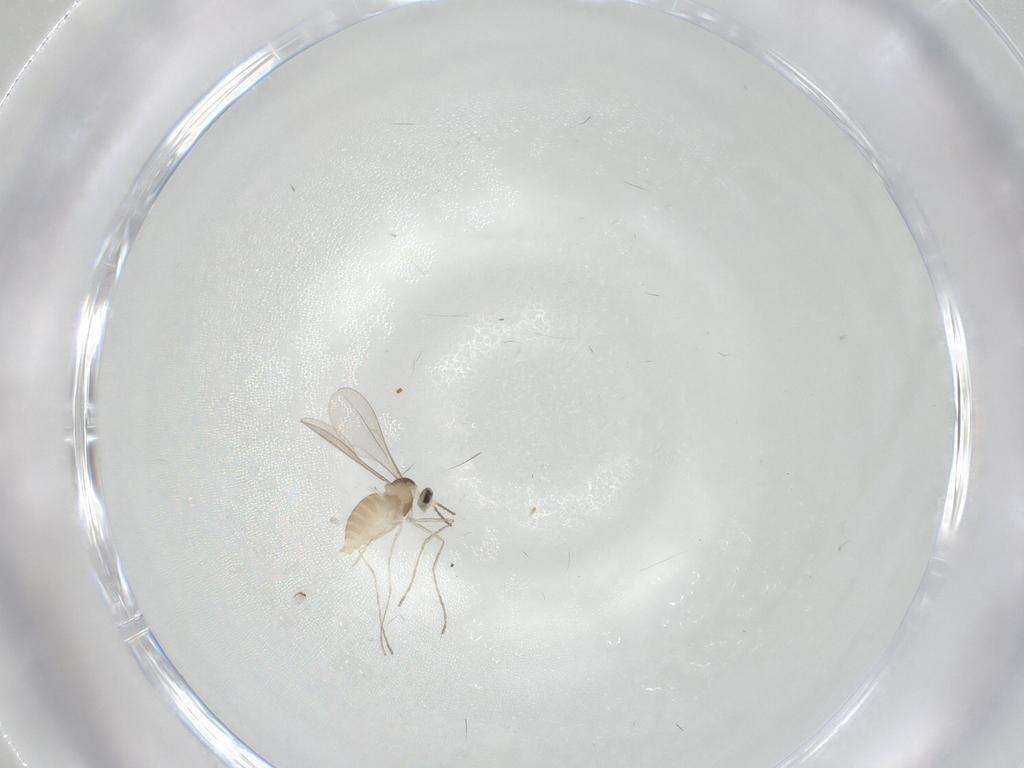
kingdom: Animalia
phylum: Arthropoda
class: Insecta
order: Diptera
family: Cecidomyiidae
